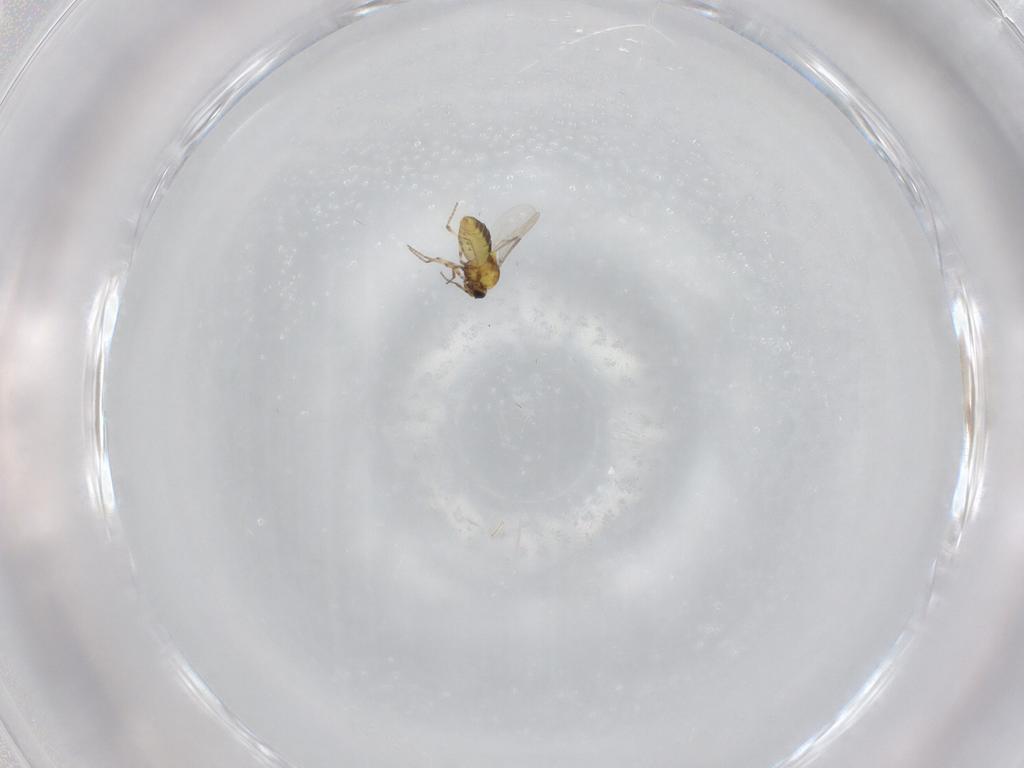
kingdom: Animalia
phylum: Arthropoda
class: Insecta
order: Diptera
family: Ceratopogonidae
